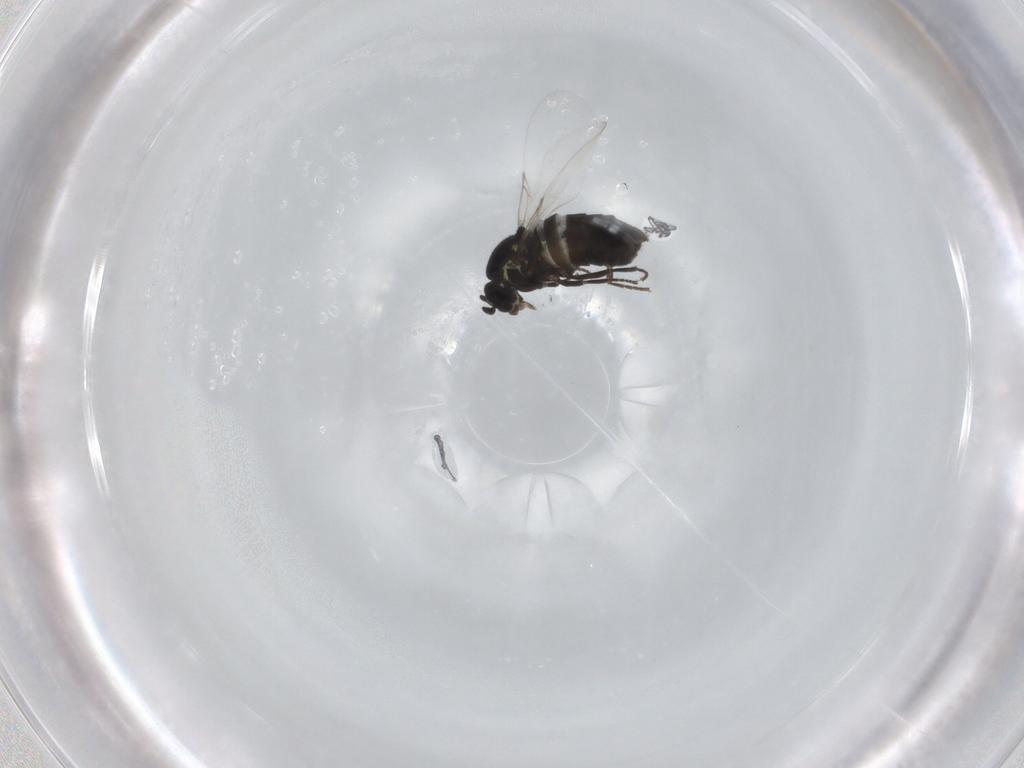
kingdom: Animalia
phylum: Arthropoda
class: Insecta
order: Diptera
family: Scatopsidae
